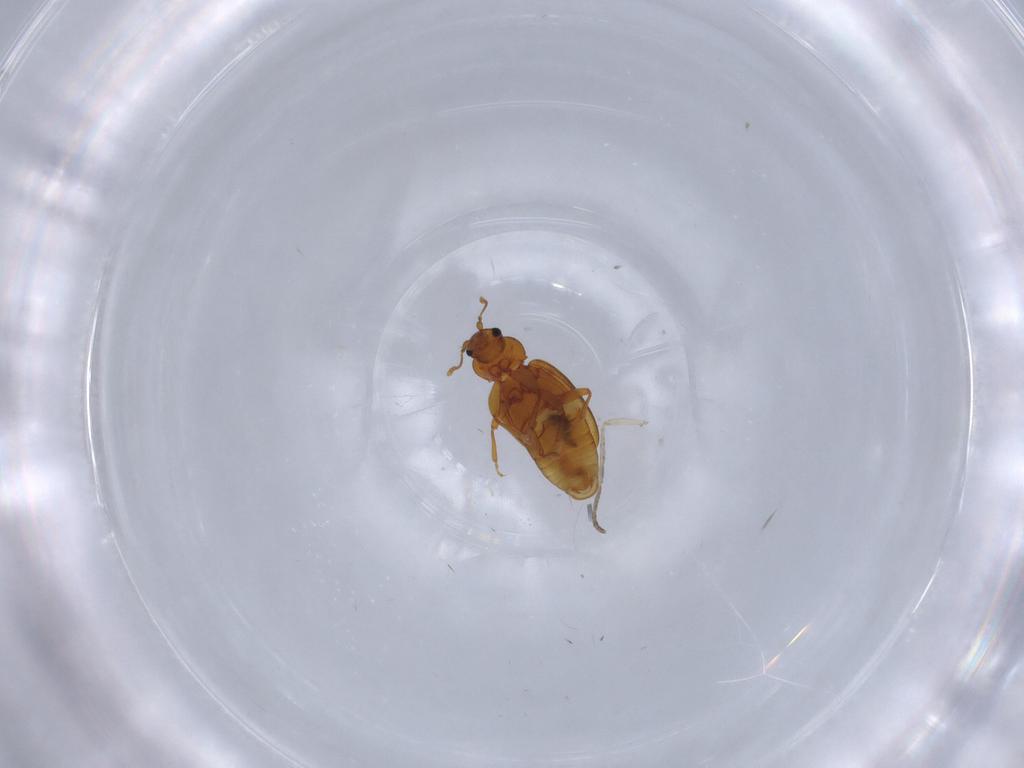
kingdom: Animalia
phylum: Arthropoda
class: Insecta
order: Coleoptera
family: Latridiidae
